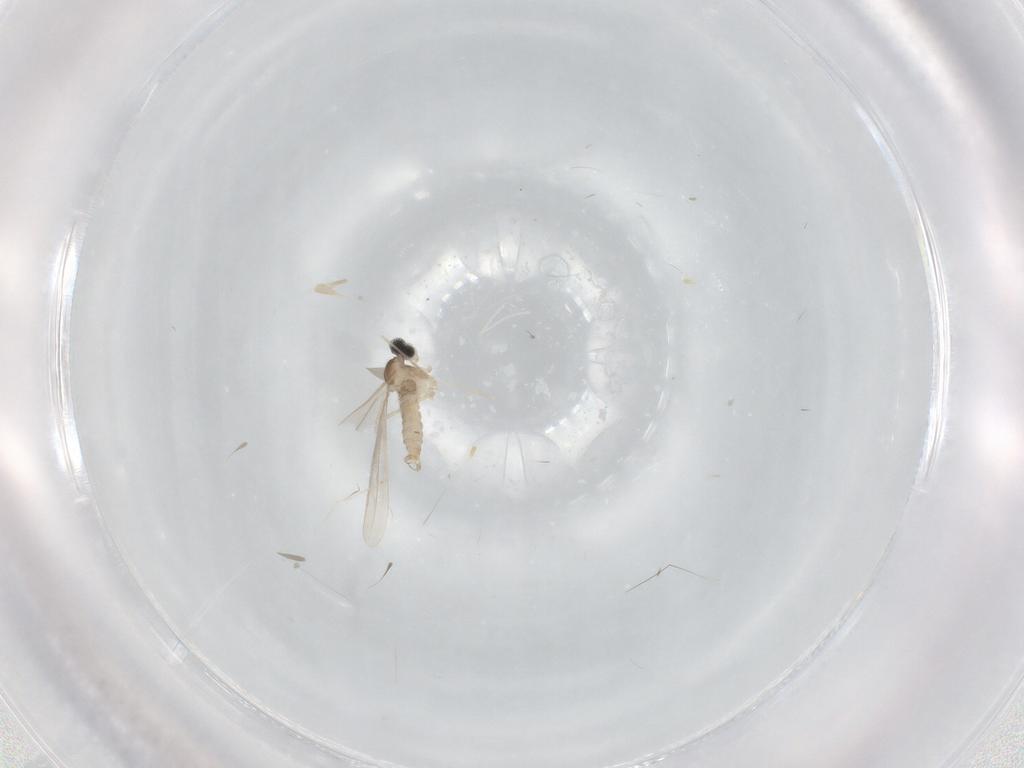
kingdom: Animalia
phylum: Arthropoda
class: Insecta
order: Diptera
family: Cecidomyiidae
